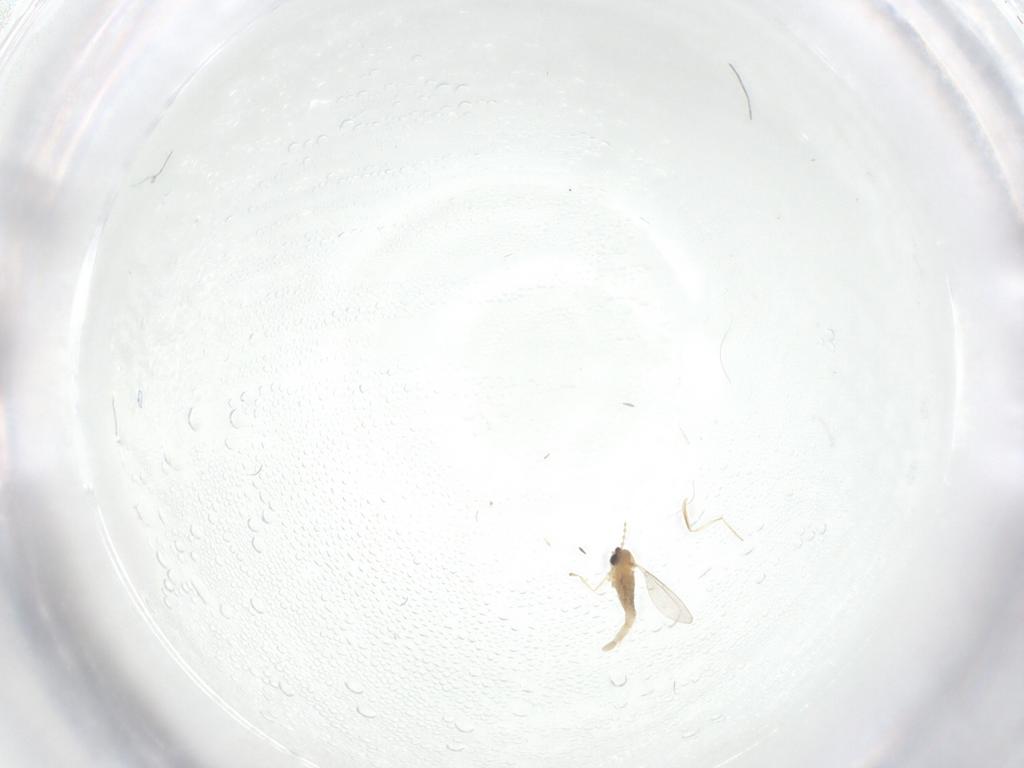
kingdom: Animalia
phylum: Arthropoda
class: Insecta
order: Diptera
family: Cecidomyiidae
